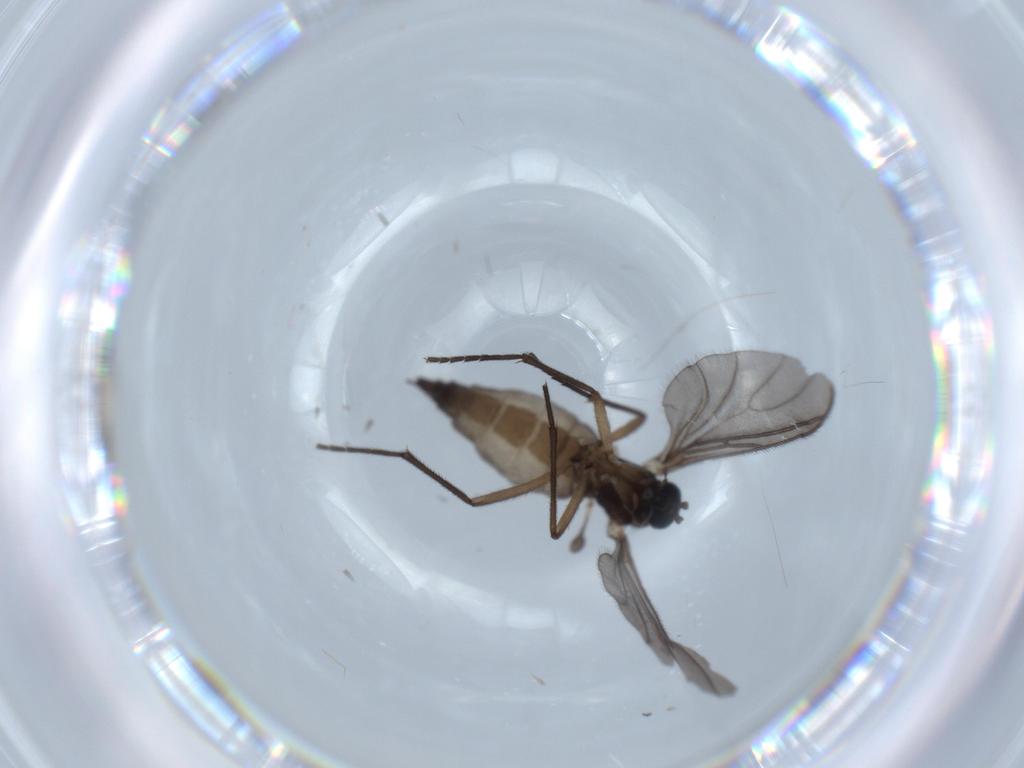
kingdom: Animalia
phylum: Arthropoda
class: Insecta
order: Diptera
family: Sciaridae
